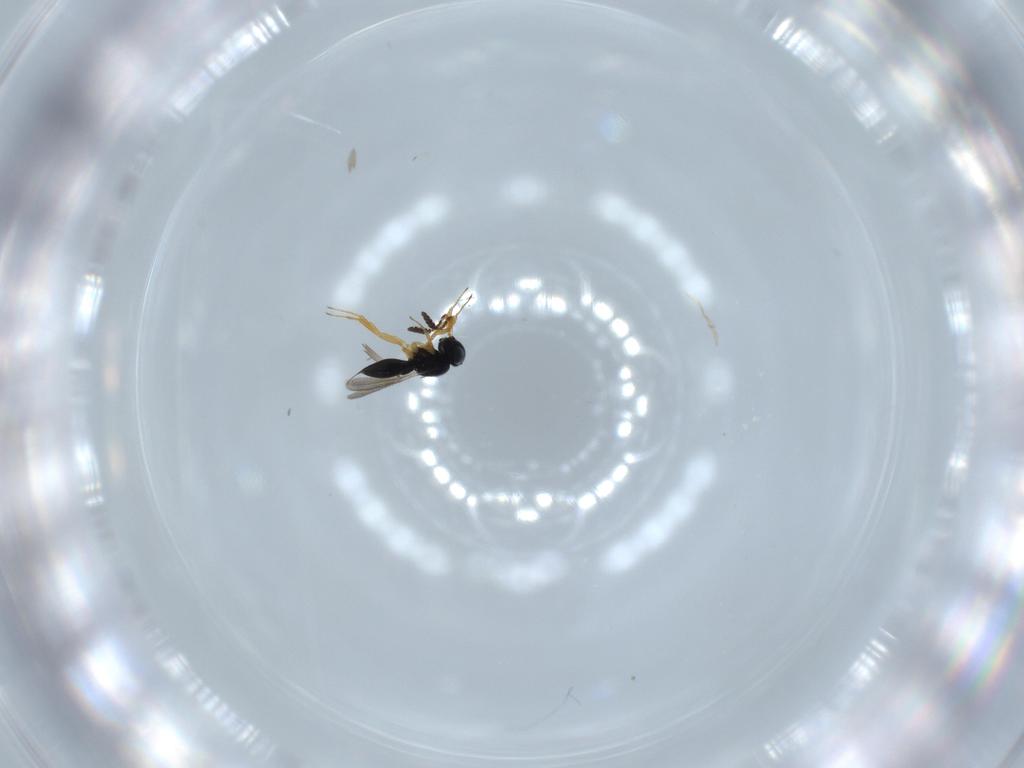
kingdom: Animalia
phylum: Arthropoda
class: Insecta
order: Hymenoptera
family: Scelionidae
